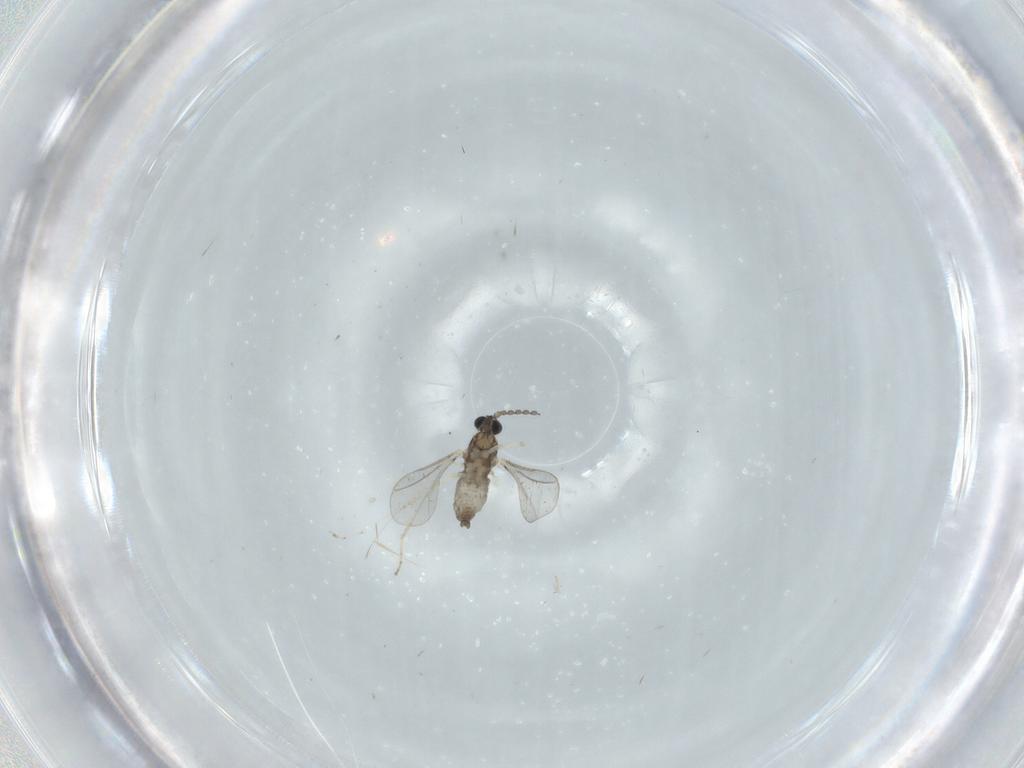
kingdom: Animalia
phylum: Arthropoda
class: Insecta
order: Diptera
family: Cecidomyiidae
